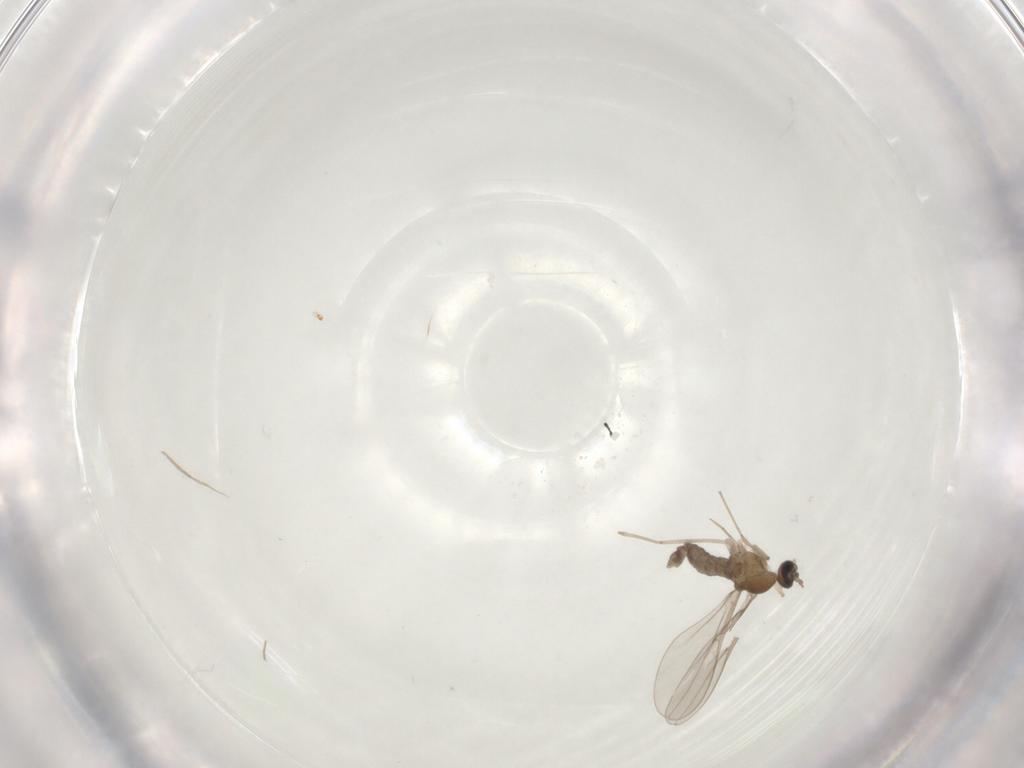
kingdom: Animalia
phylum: Arthropoda
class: Insecta
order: Diptera
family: Cecidomyiidae
